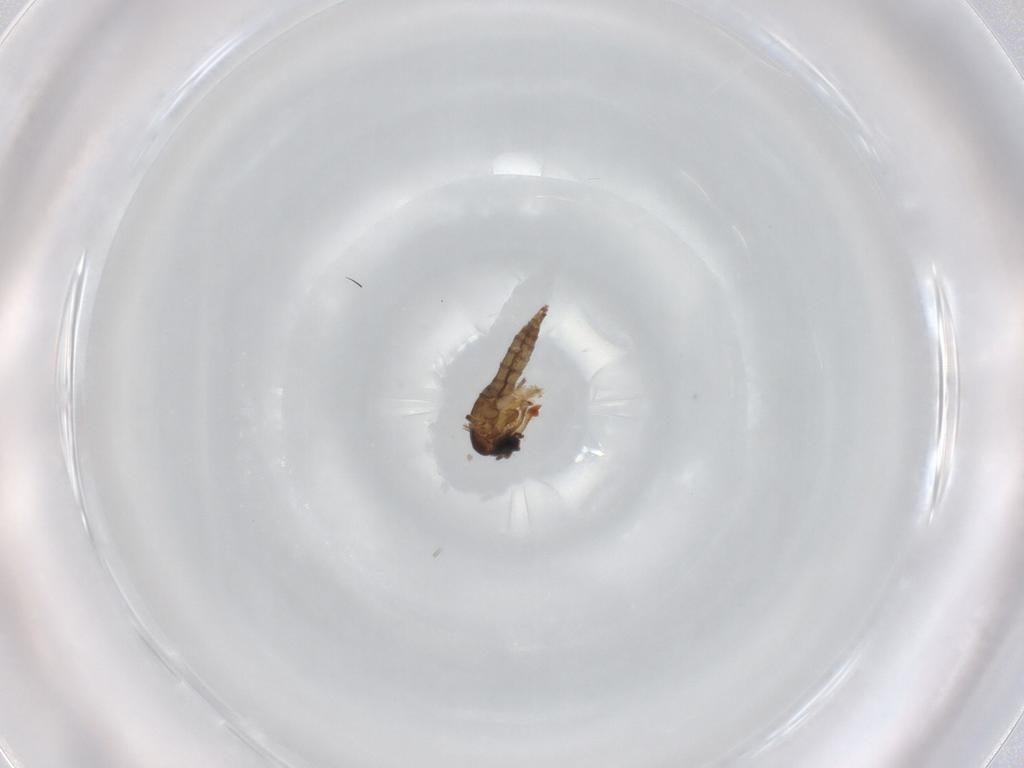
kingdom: Animalia
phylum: Arthropoda
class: Insecta
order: Diptera
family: Sciaridae
